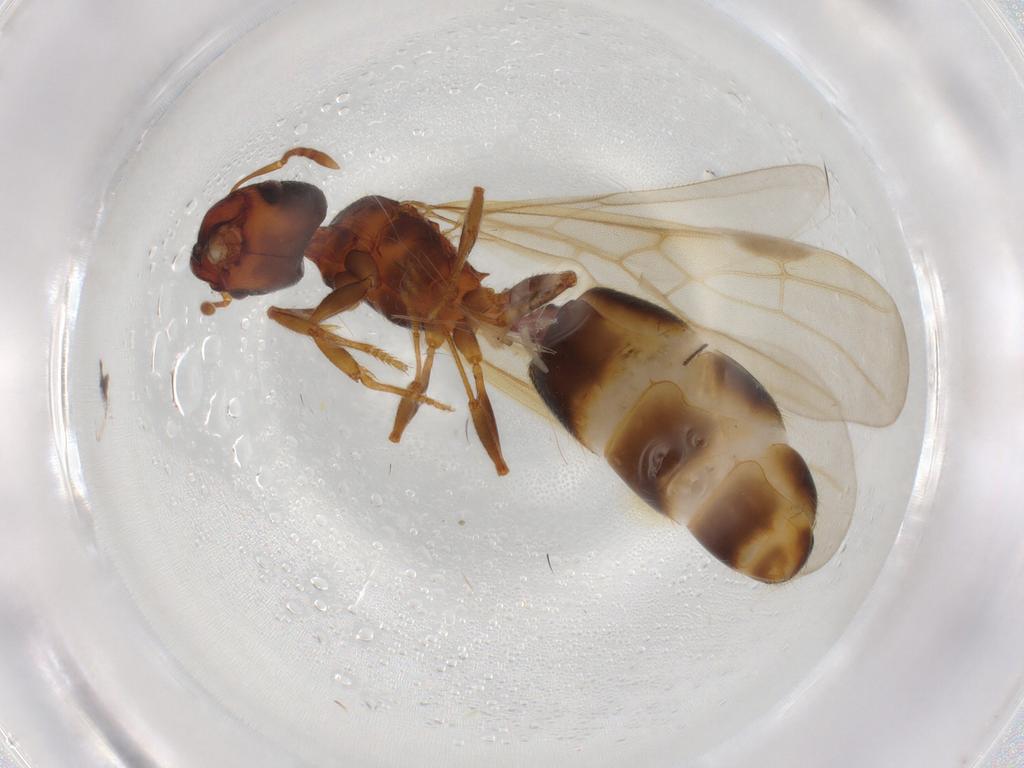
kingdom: Animalia
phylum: Arthropoda
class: Insecta
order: Hymenoptera
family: Formicidae
